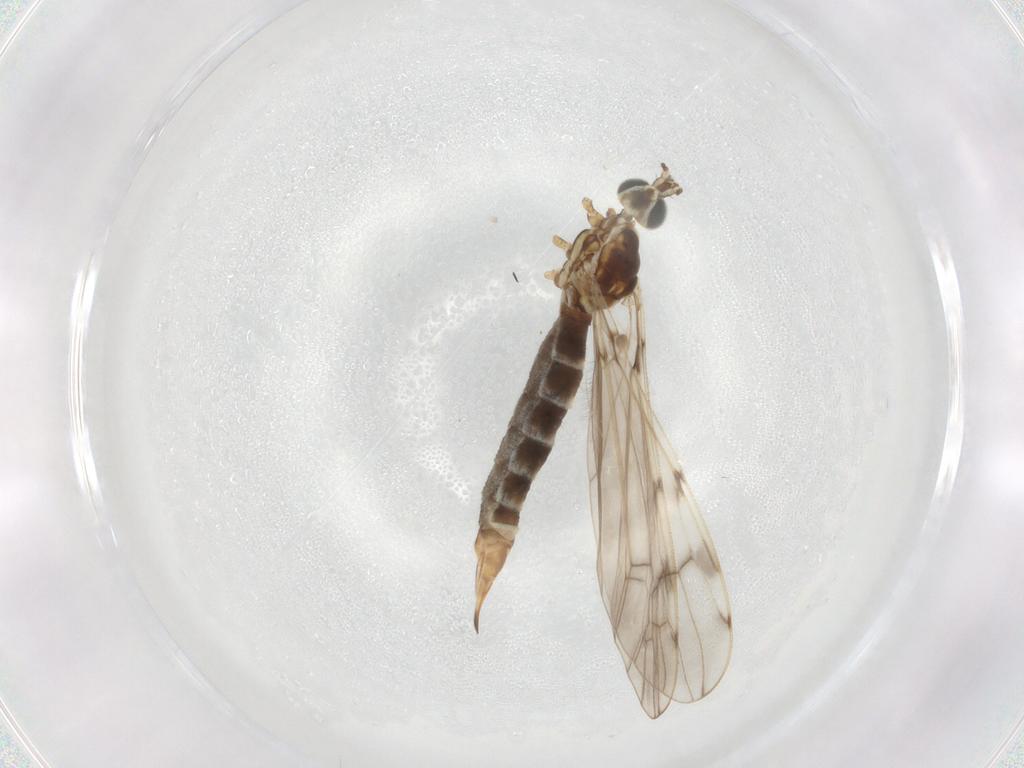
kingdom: Animalia
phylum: Arthropoda
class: Insecta
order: Diptera
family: Limoniidae
